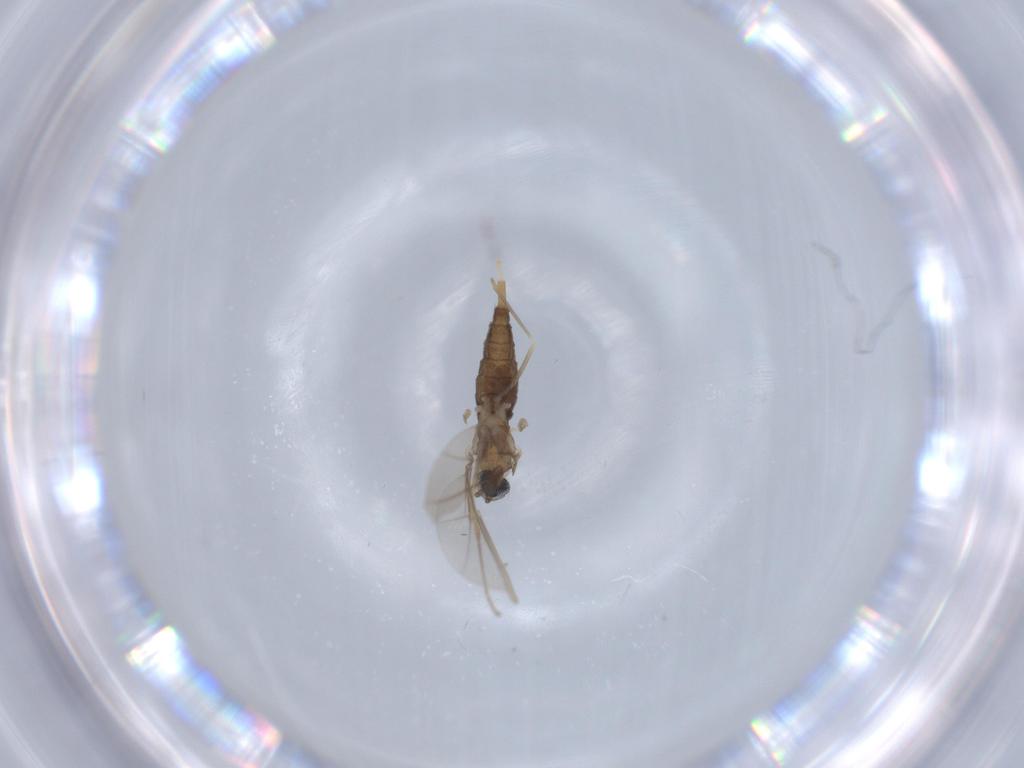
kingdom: Animalia
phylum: Arthropoda
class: Insecta
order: Diptera
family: Cecidomyiidae
